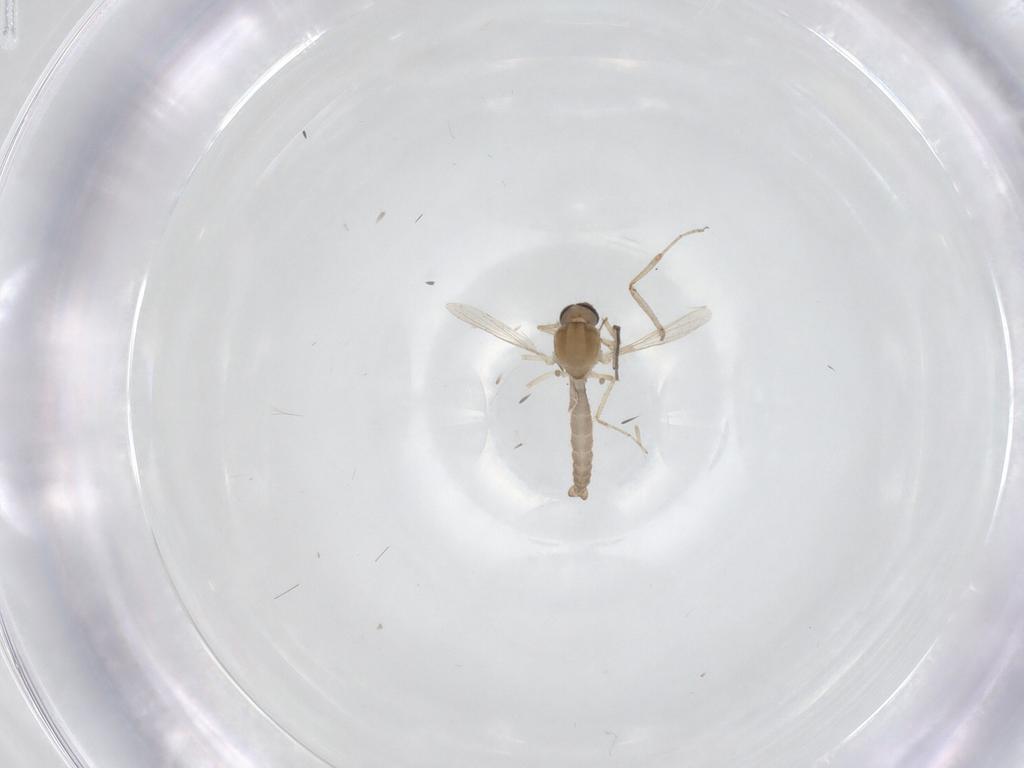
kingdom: Animalia
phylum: Arthropoda
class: Insecta
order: Diptera
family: Ceratopogonidae
